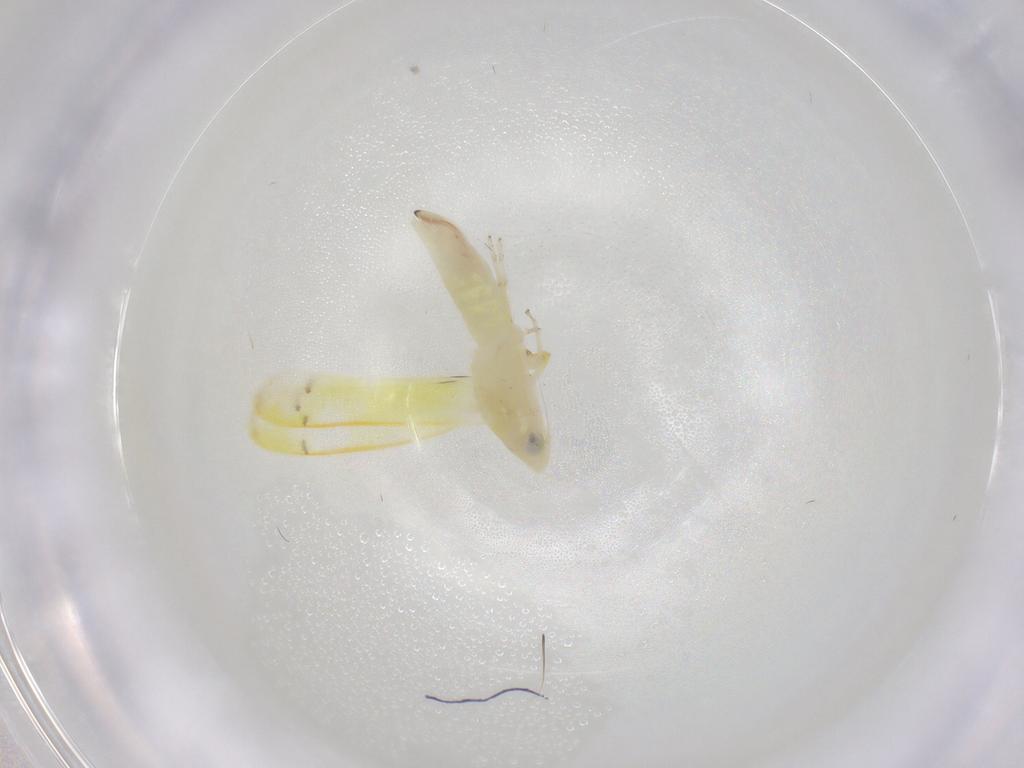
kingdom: Animalia
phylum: Arthropoda
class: Insecta
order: Hemiptera
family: Cicadellidae
